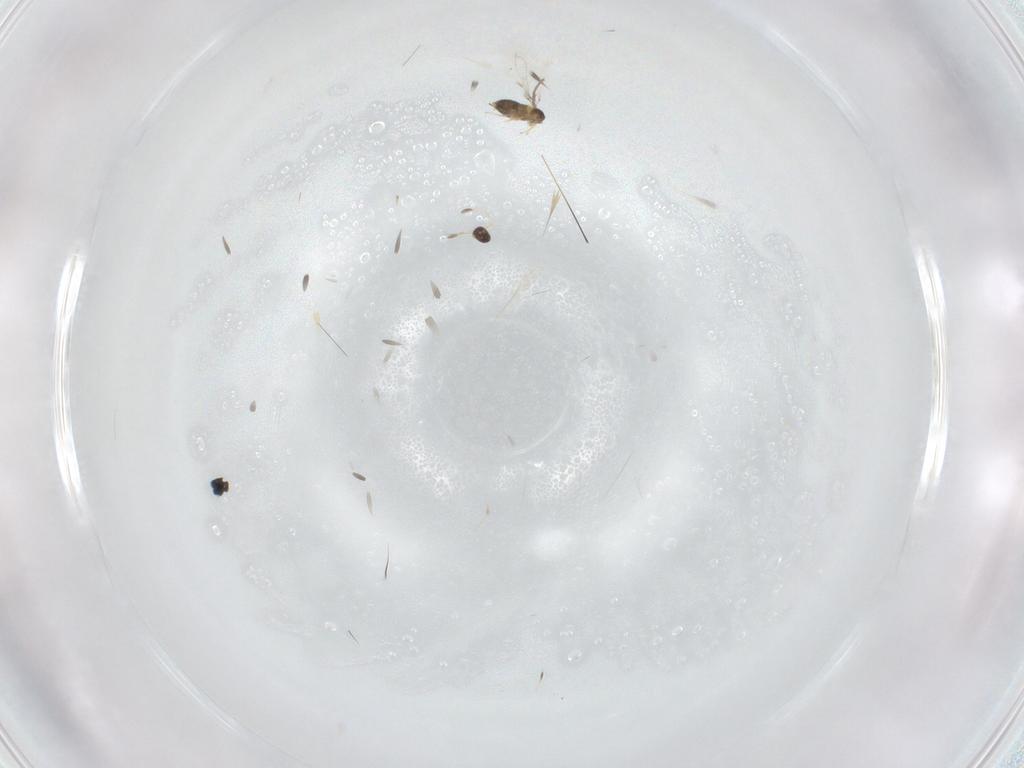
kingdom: Animalia
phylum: Arthropoda
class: Insecta
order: Hymenoptera
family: Mymaridae
